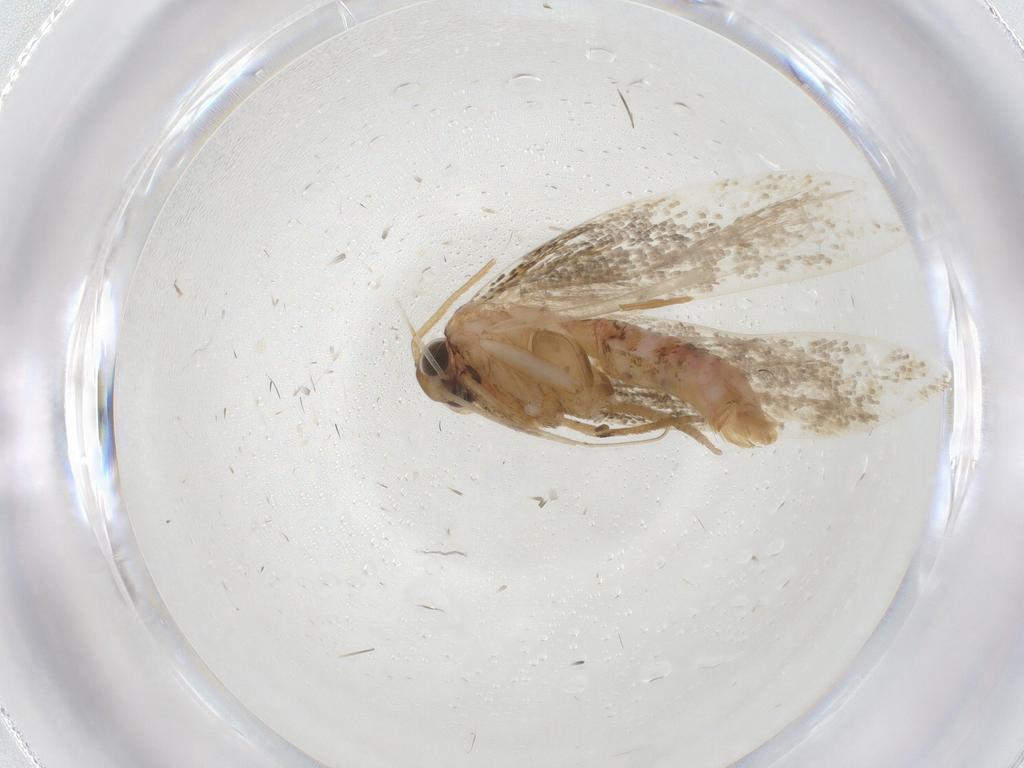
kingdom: Animalia
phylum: Arthropoda
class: Insecta
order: Lepidoptera
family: Crambidae
